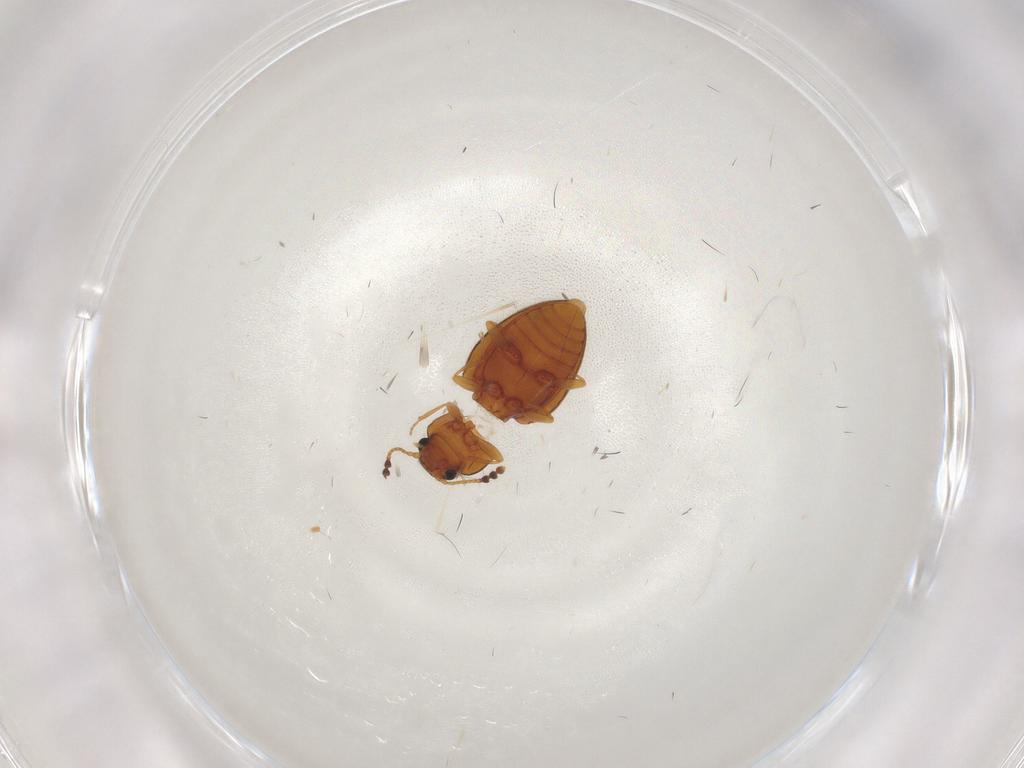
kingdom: Animalia
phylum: Arthropoda
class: Insecta
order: Coleoptera
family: Erotylidae
